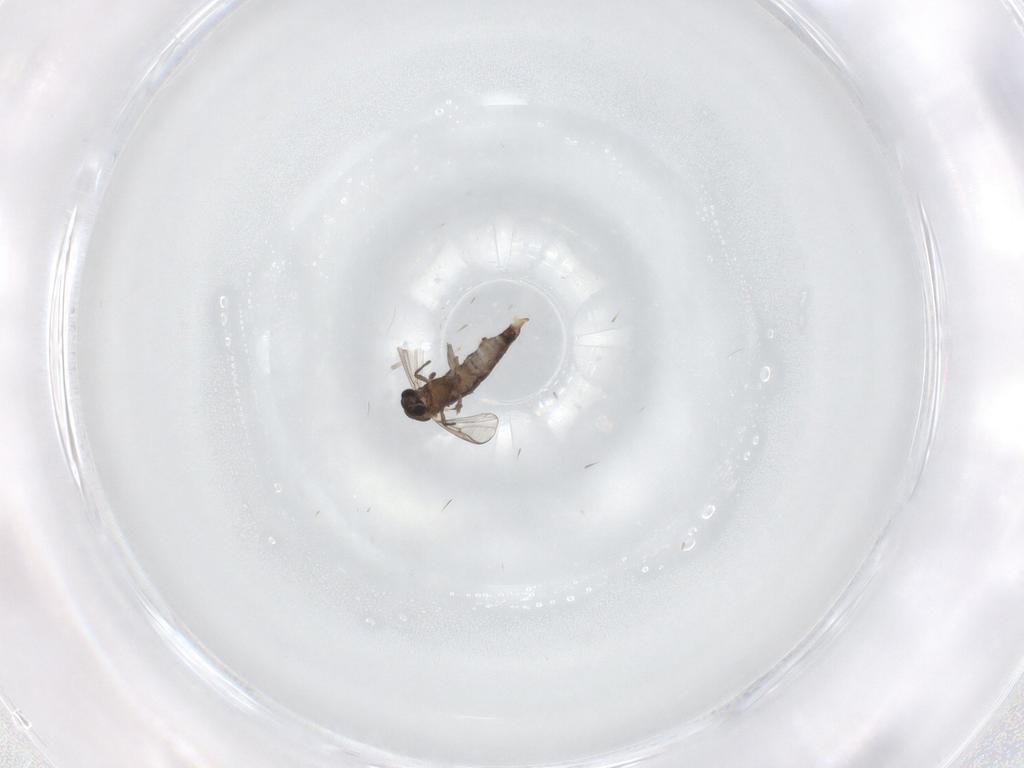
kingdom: Animalia
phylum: Arthropoda
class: Insecta
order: Diptera
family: Chironomidae
